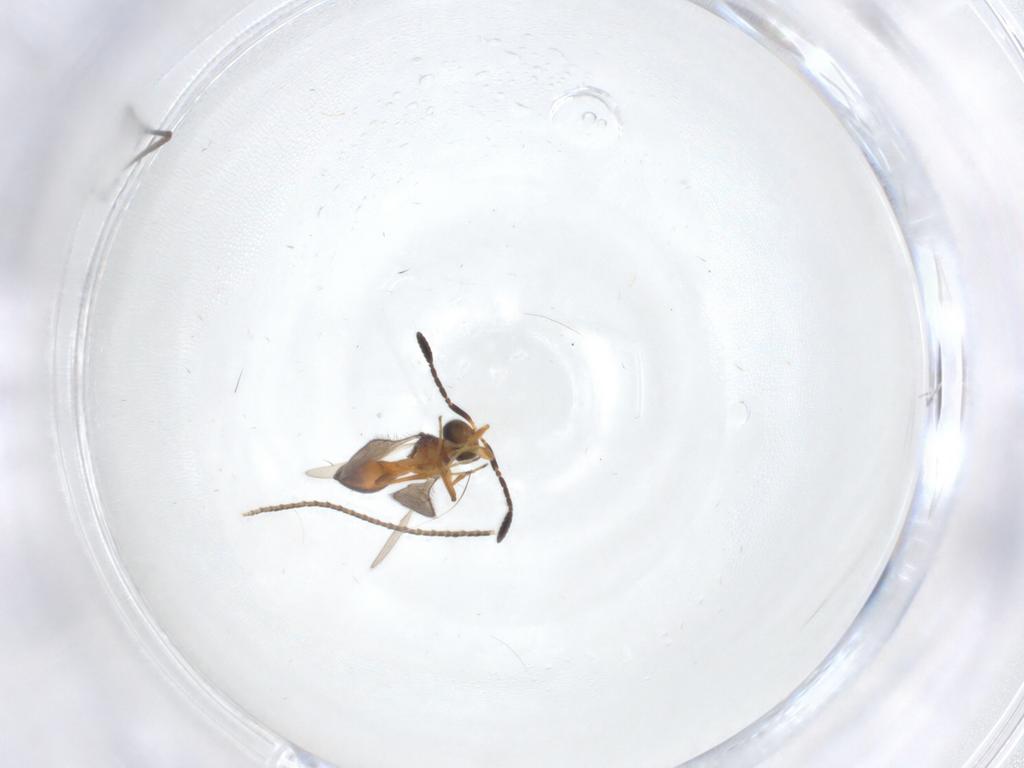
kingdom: Animalia
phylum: Arthropoda
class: Insecta
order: Hymenoptera
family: Scelionidae
